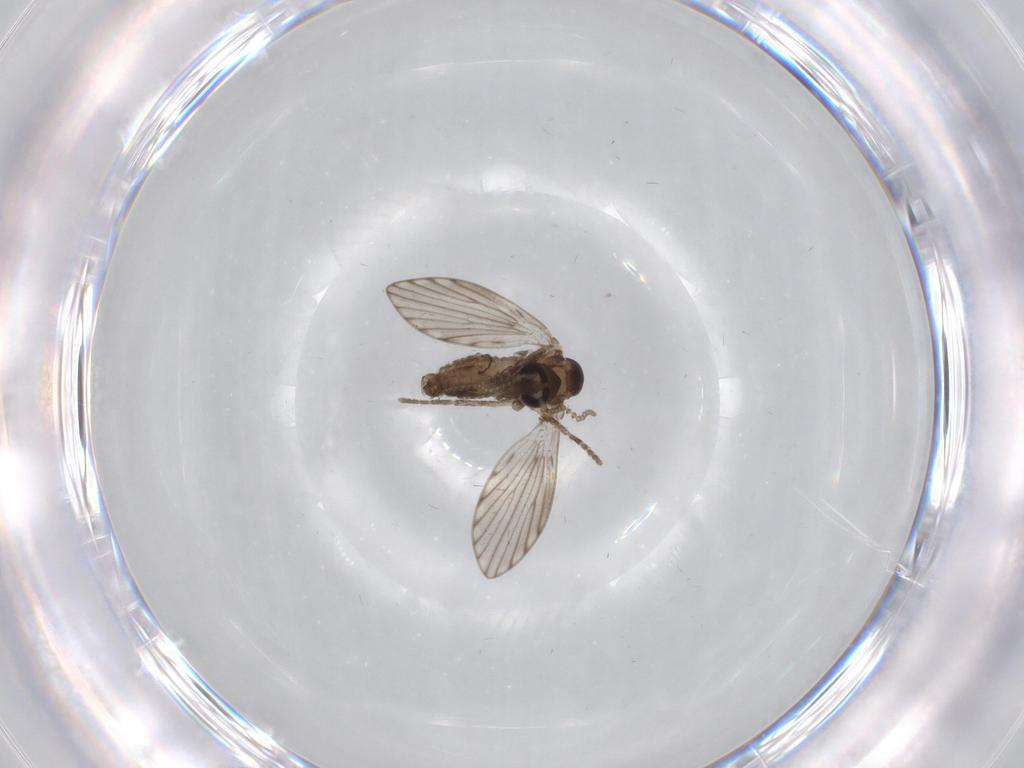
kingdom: Animalia
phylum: Arthropoda
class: Insecta
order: Diptera
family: Psychodidae
